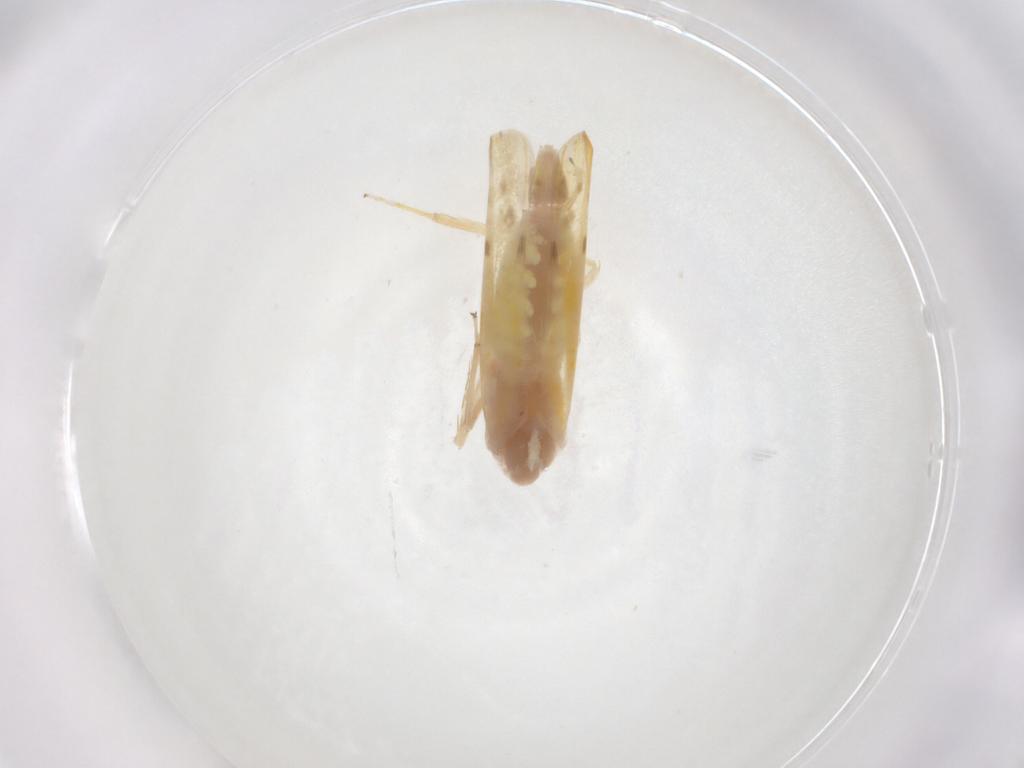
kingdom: Animalia
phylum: Arthropoda
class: Insecta
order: Hemiptera
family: Cicadellidae
